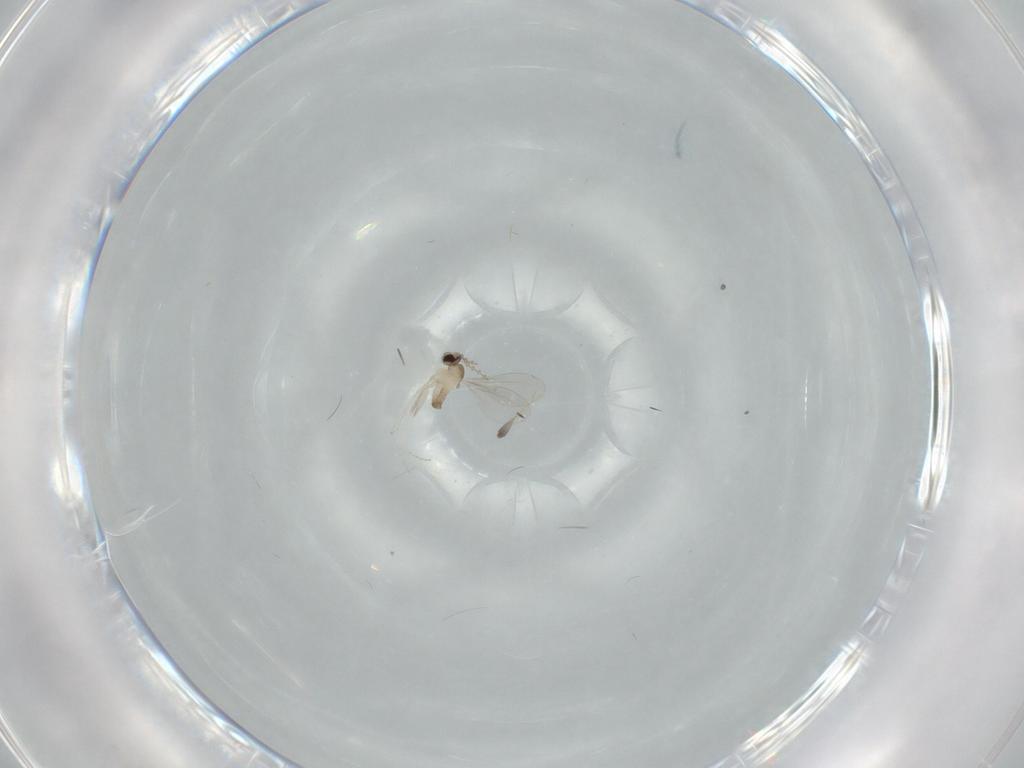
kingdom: Animalia
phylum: Arthropoda
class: Insecta
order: Diptera
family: Cecidomyiidae
